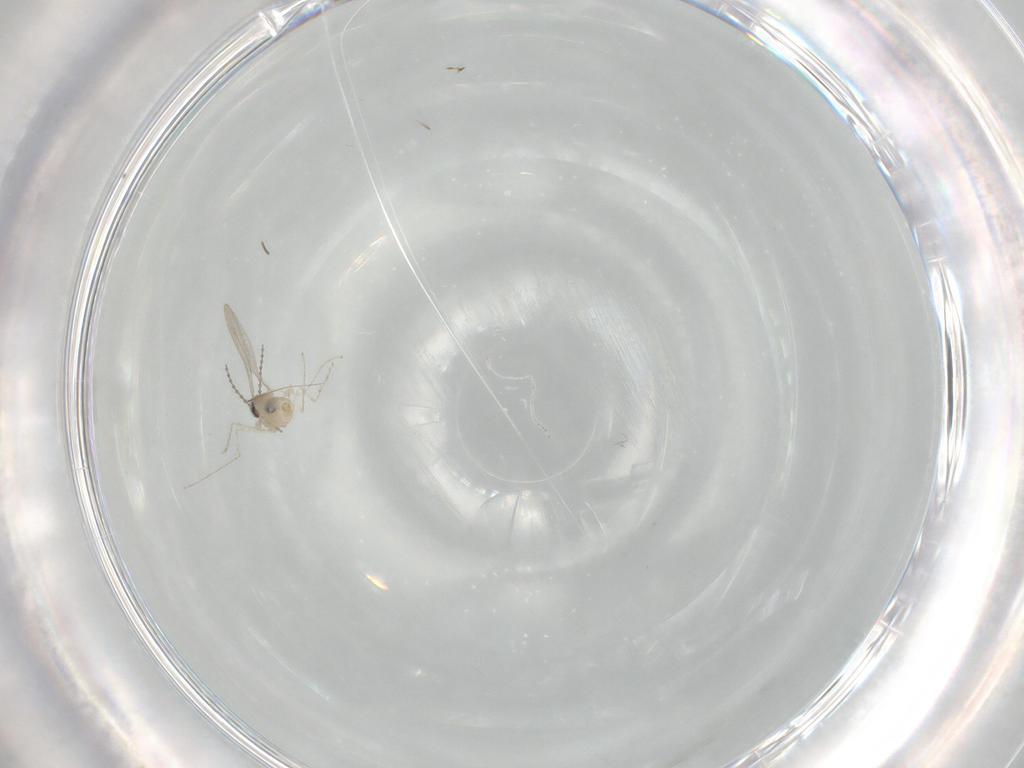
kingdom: Animalia
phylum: Arthropoda
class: Insecta
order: Diptera
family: Cecidomyiidae
